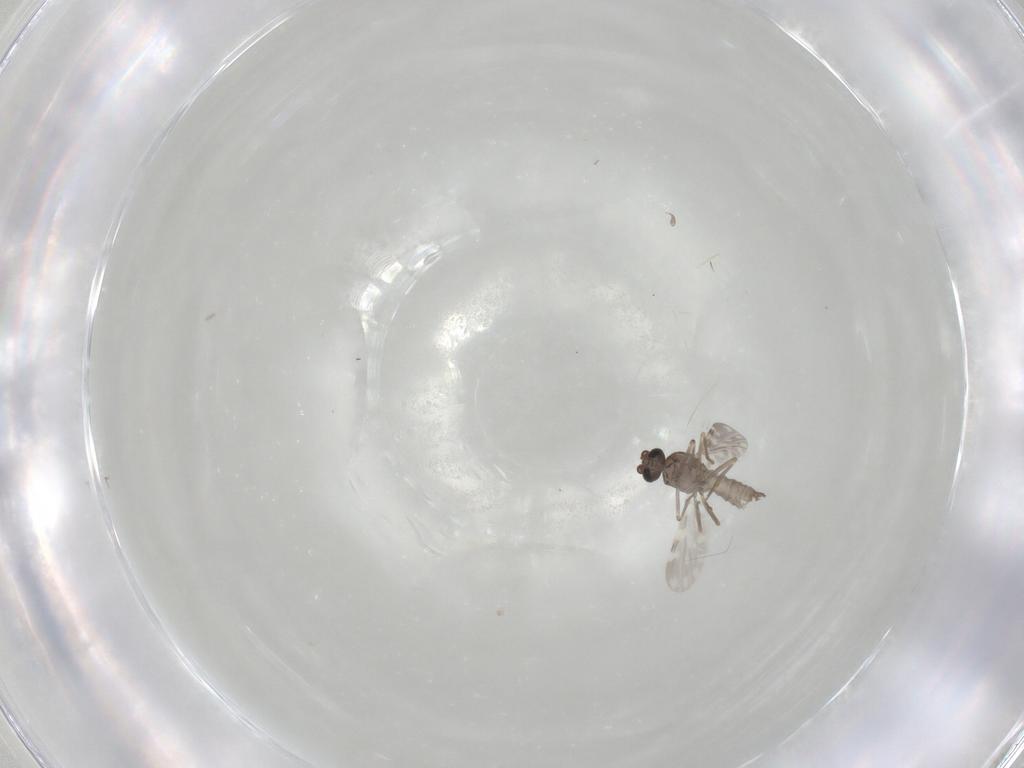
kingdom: Animalia
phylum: Arthropoda
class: Insecta
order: Diptera
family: Ceratopogonidae
